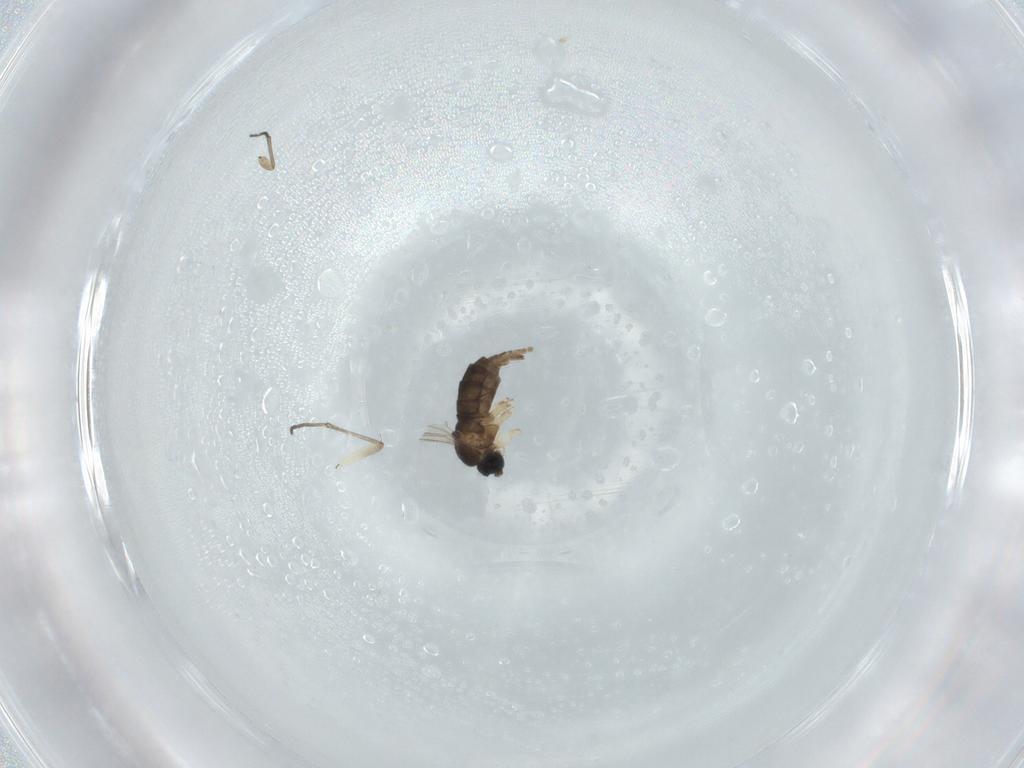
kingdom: Animalia
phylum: Arthropoda
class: Insecta
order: Diptera
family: Sciaridae
